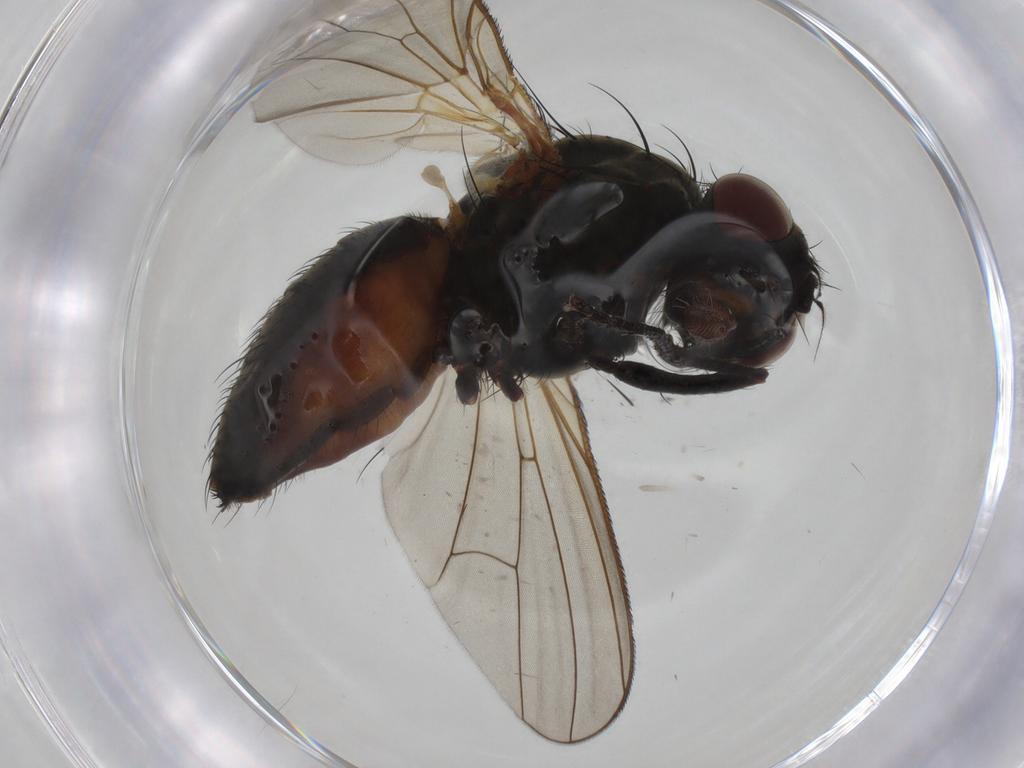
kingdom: Animalia
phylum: Arthropoda
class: Insecta
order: Diptera
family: Anthomyiidae
